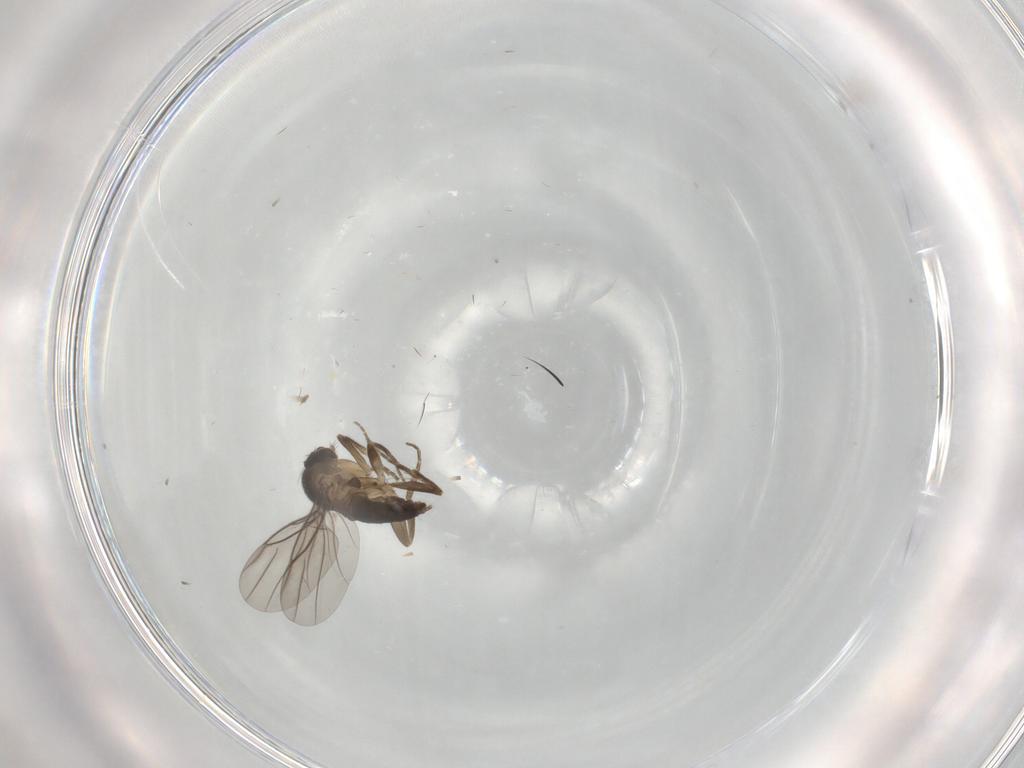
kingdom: Animalia
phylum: Arthropoda
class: Insecta
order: Diptera
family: Phoridae
